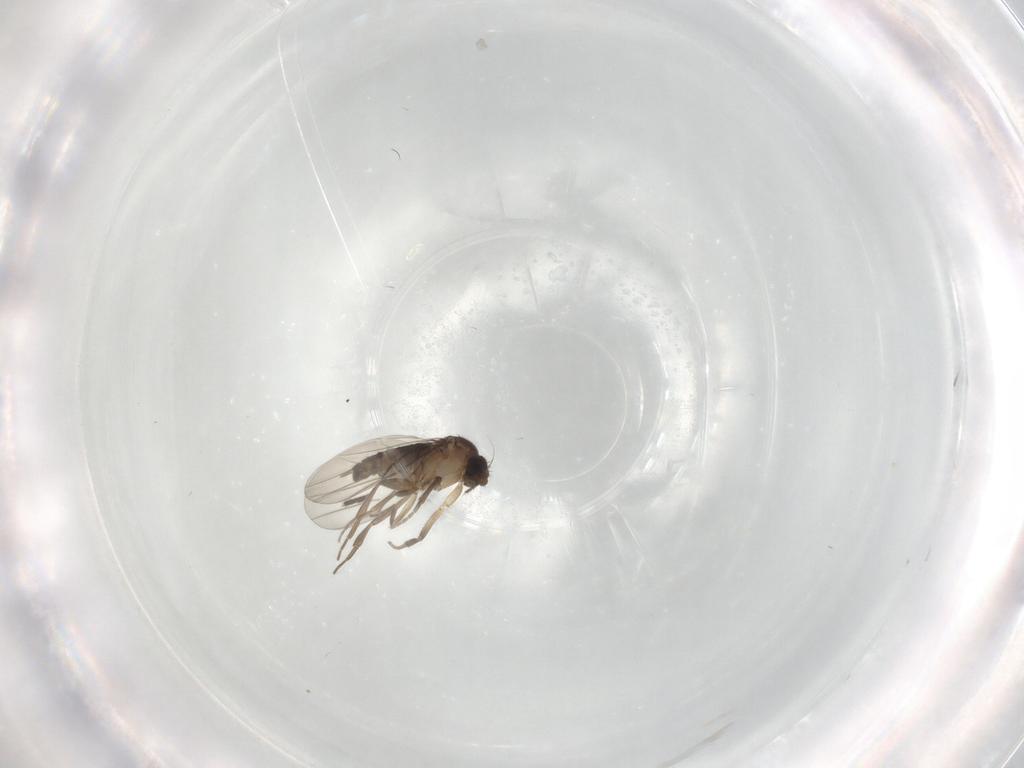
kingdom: Animalia
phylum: Arthropoda
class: Insecta
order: Diptera
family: Phoridae
